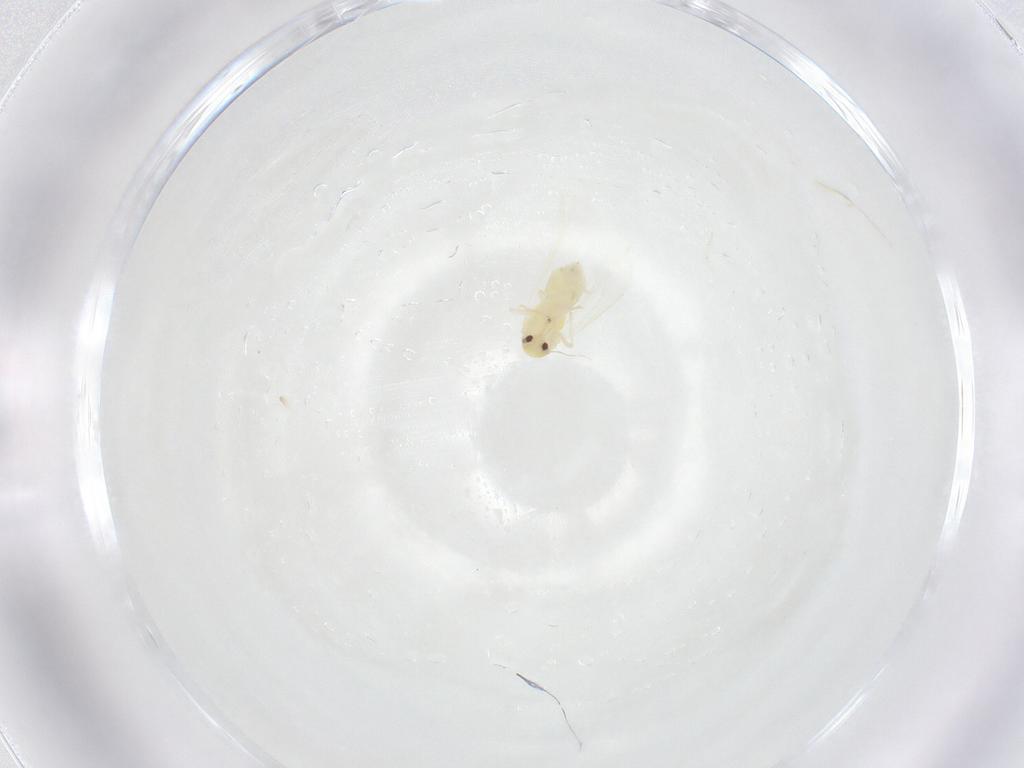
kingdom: Animalia
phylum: Arthropoda
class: Insecta
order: Hemiptera
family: Aleyrodidae
